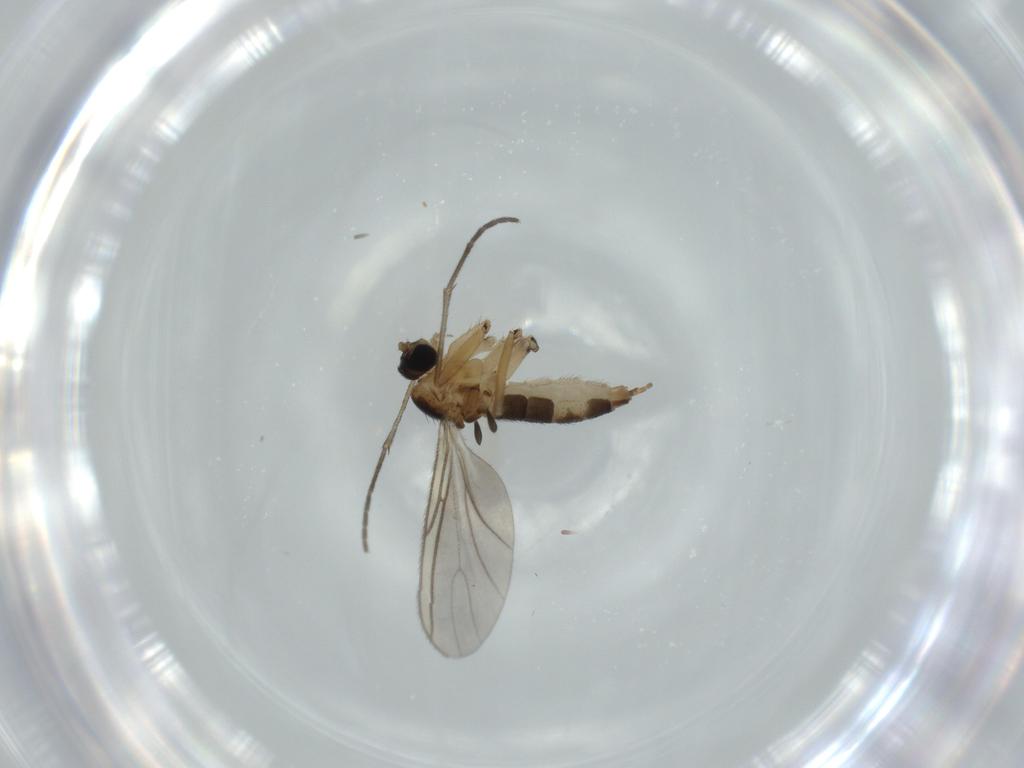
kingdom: Animalia
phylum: Arthropoda
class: Insecta
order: Diptera
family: Sciaridae
